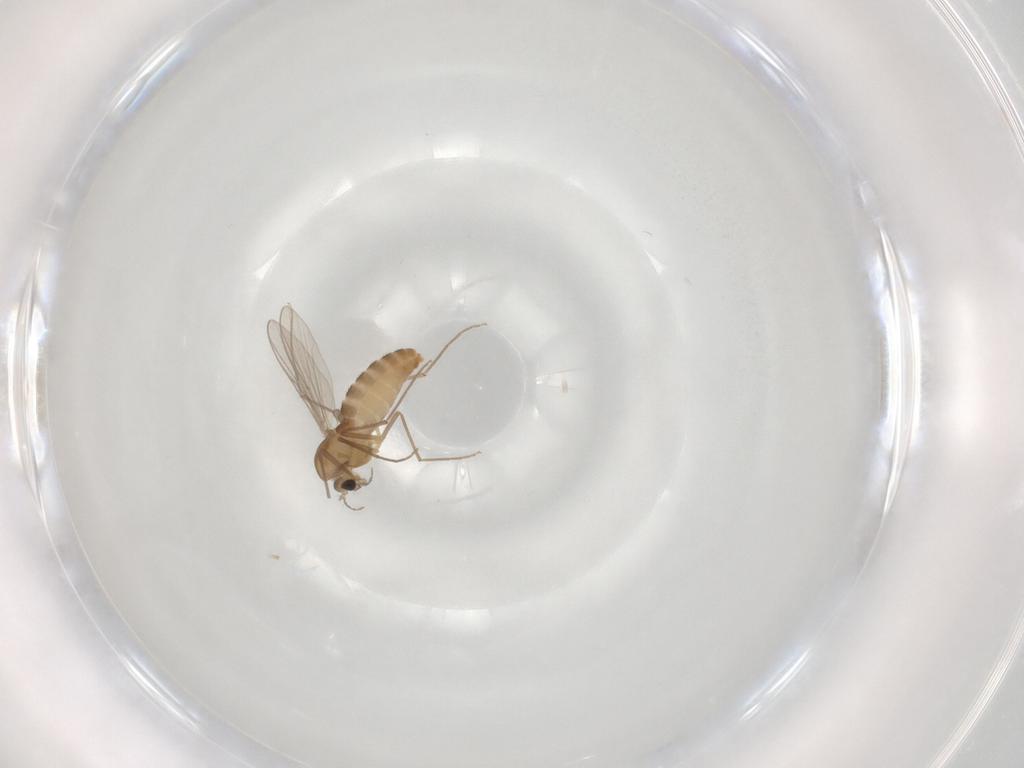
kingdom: Animalia
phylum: Arthropoda
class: Insecta
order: Diptera
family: Chironomidae
